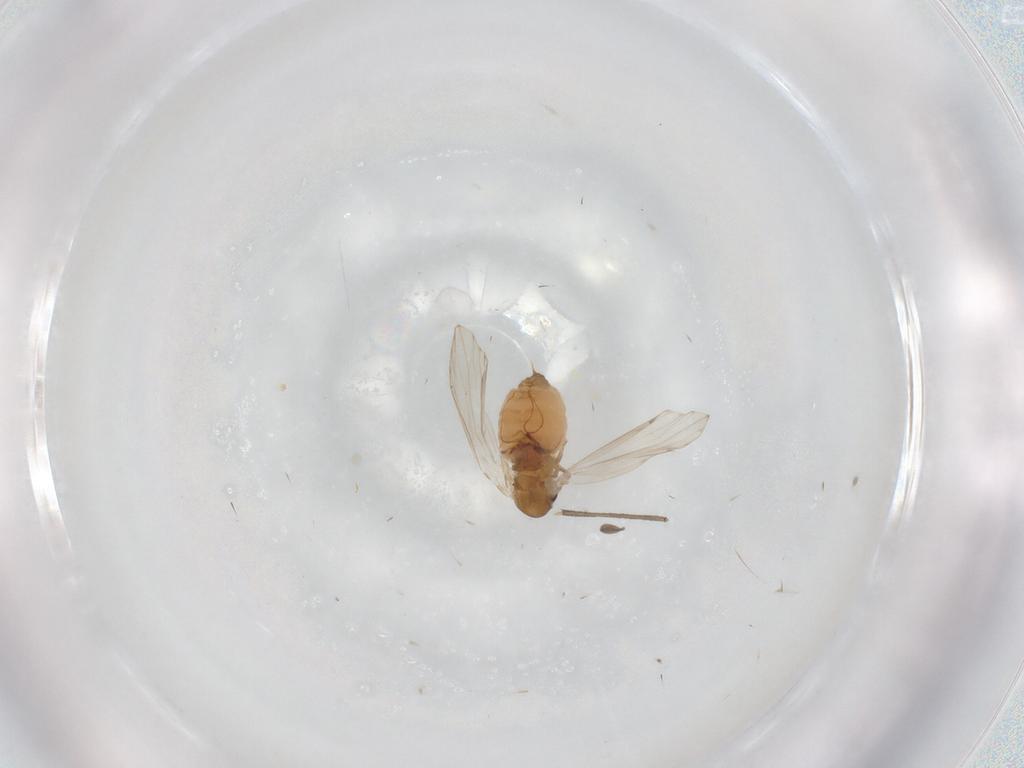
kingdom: Animalia
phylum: Arthropoda
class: Insecta
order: Diptera
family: Psychodidae
